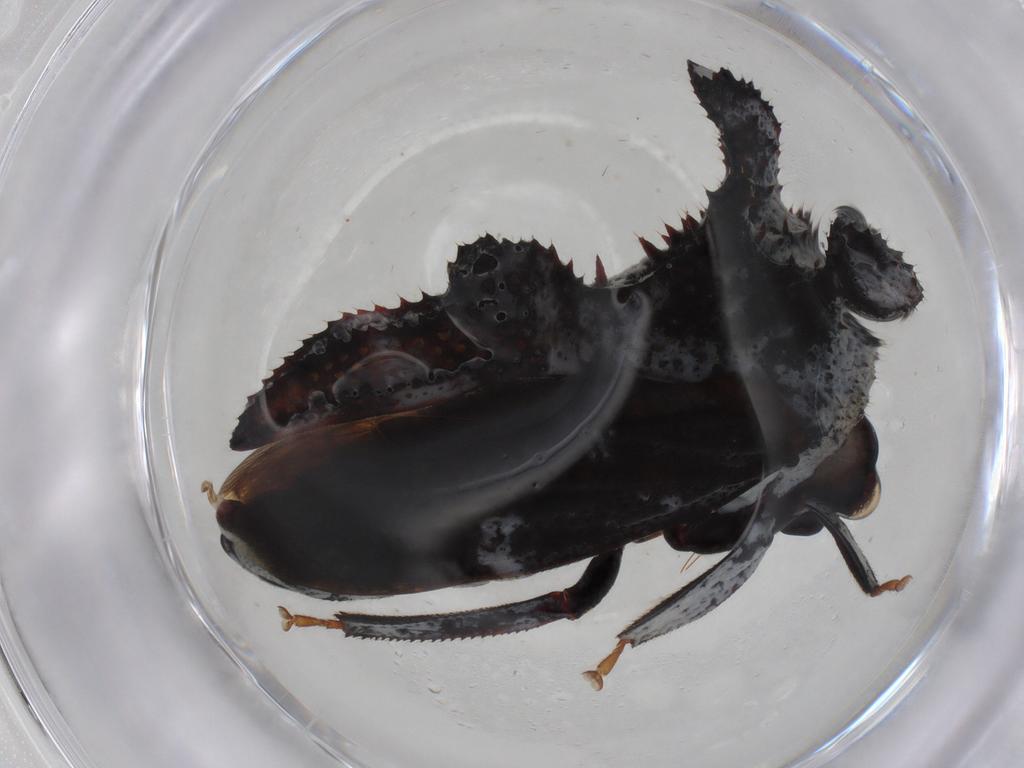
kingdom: Animalia
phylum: Arthropoda
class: Insecta
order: Hemiptera
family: Membracidae
